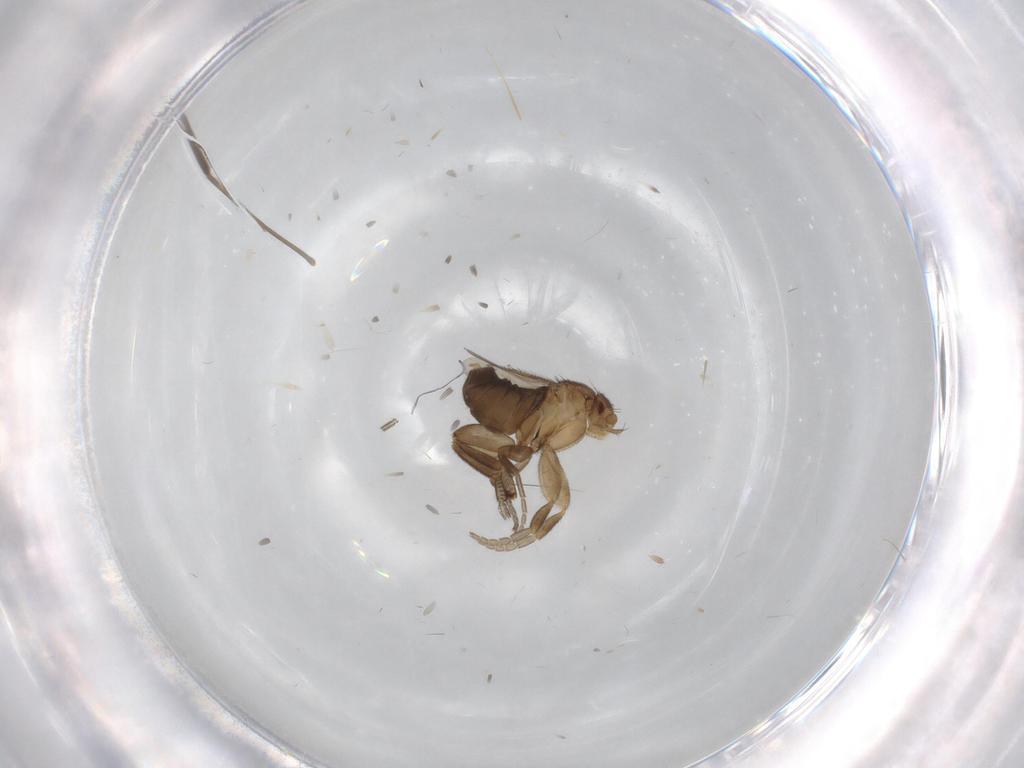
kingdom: Animalia
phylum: Arthropoda
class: Insecta
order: Diptera
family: Phoridae
